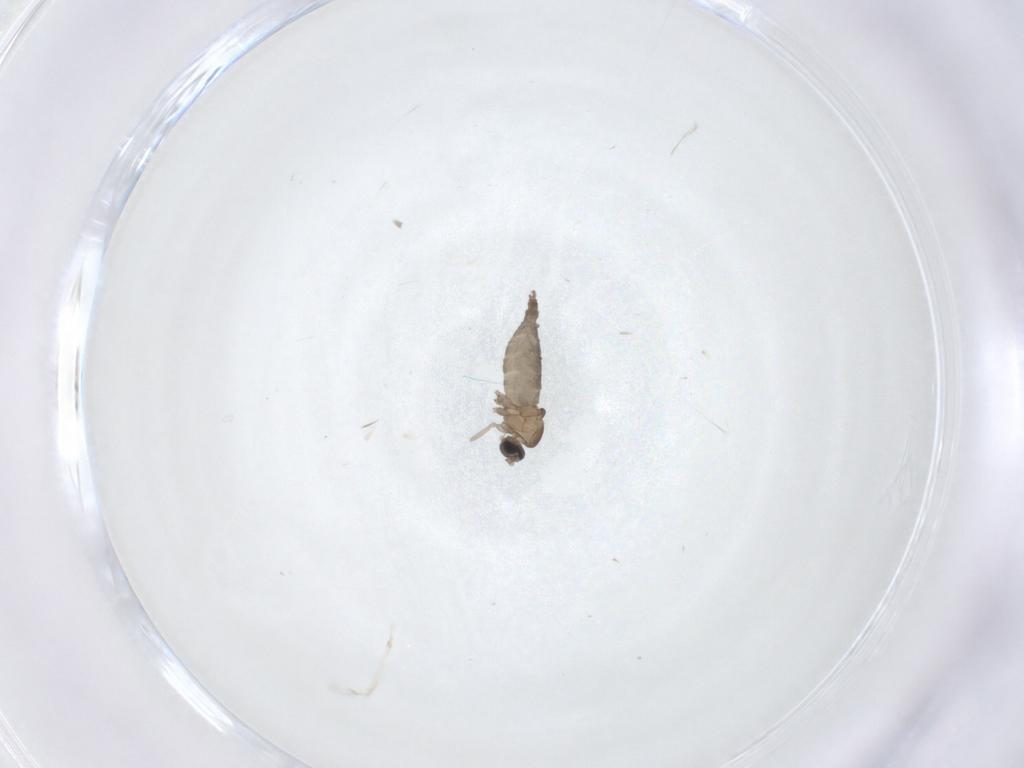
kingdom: Animalia
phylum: Arthropoda
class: Insecta
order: Diptera
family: Cecidomyiidae
